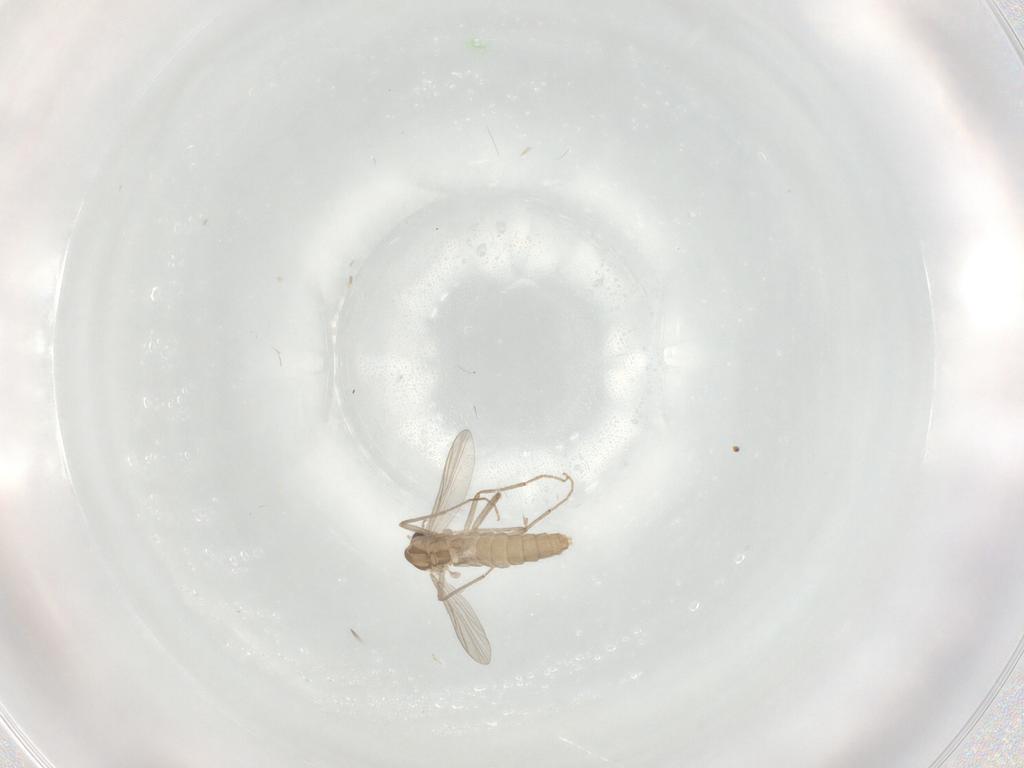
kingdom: Animalia
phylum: Arthropoda
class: Insecta
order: Diptera
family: Chironomidae
